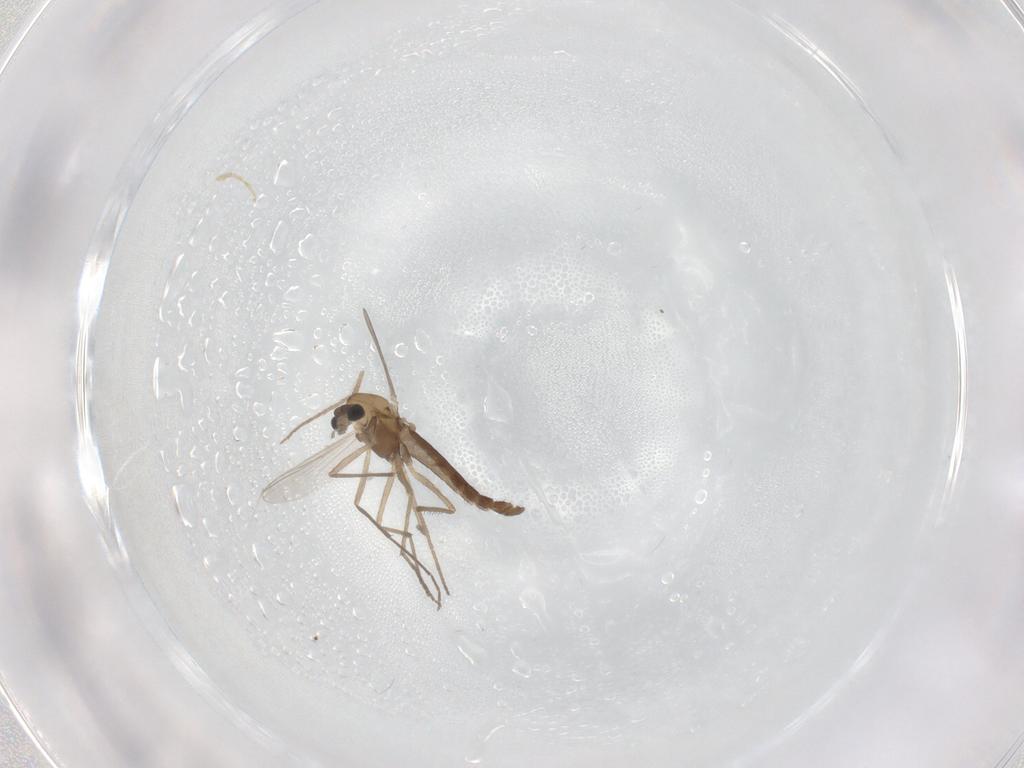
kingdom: Animalia
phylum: Arthropoda
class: Insecta
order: Diptera
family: Chironomidae
